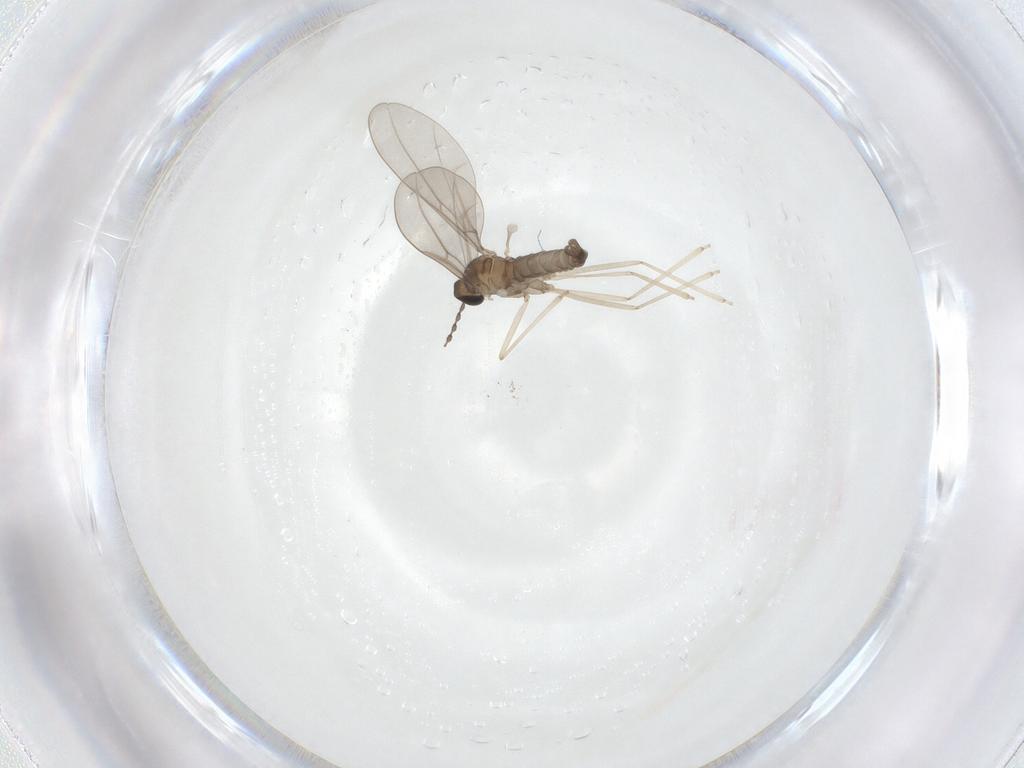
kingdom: Animalia
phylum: Arthropoda
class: Insecta
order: Diptera
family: Cecidomyiidae
